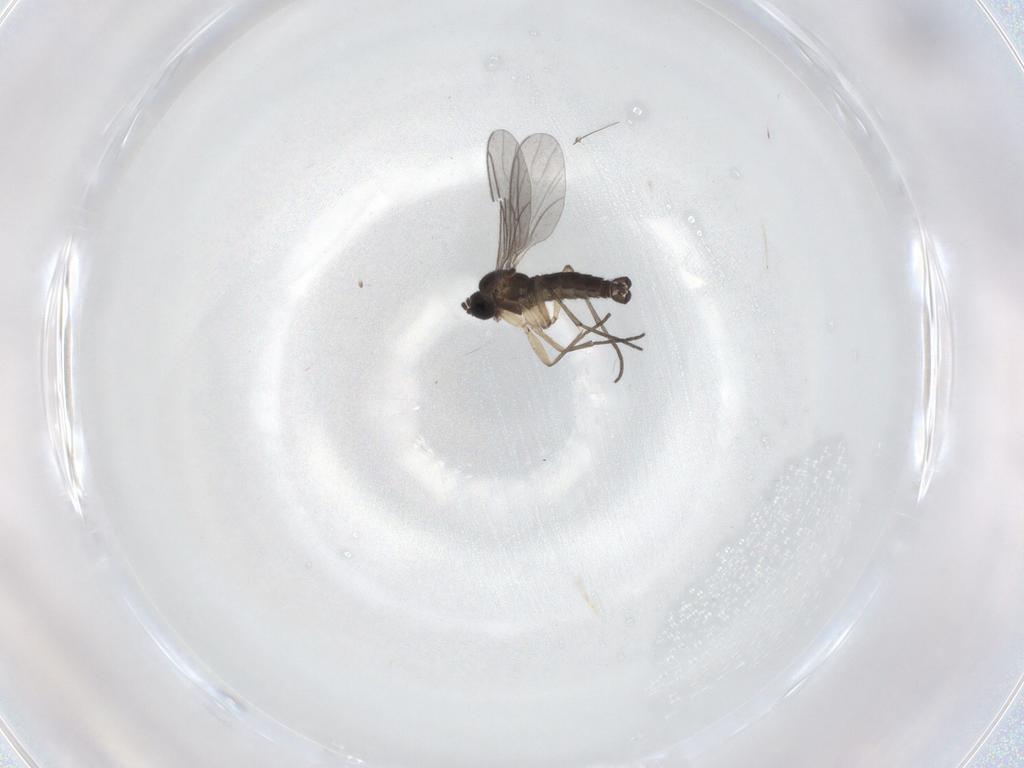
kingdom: Animalia
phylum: Arthropoda
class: Insecta
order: Diptera
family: Sciaridae
